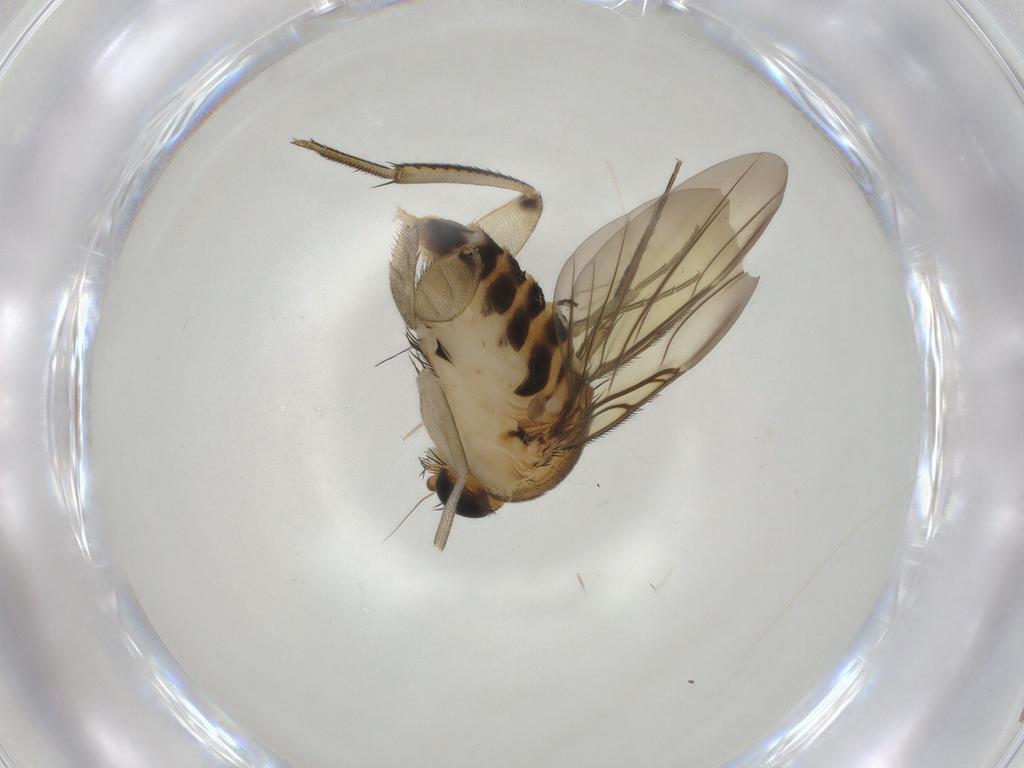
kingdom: Animalia
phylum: Arthropoda
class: Insecta
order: Diptera
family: Phoridae
